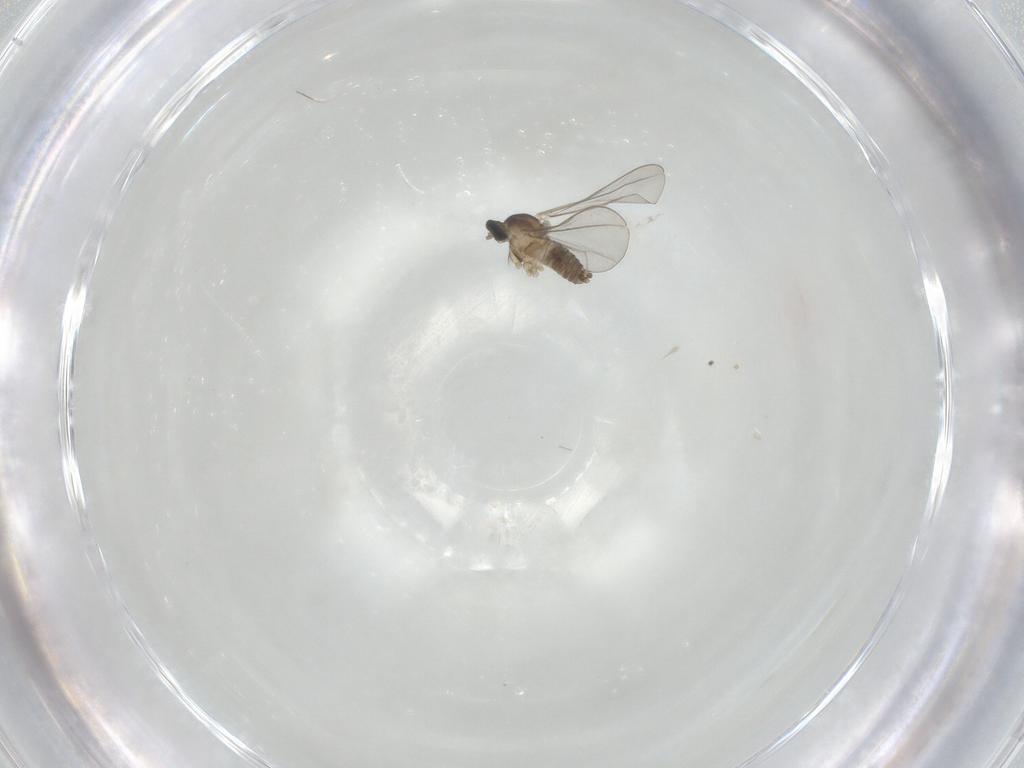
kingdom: Animalia
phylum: Arthropoda
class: Insecta
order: Diptera
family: Cecidomyiidae
